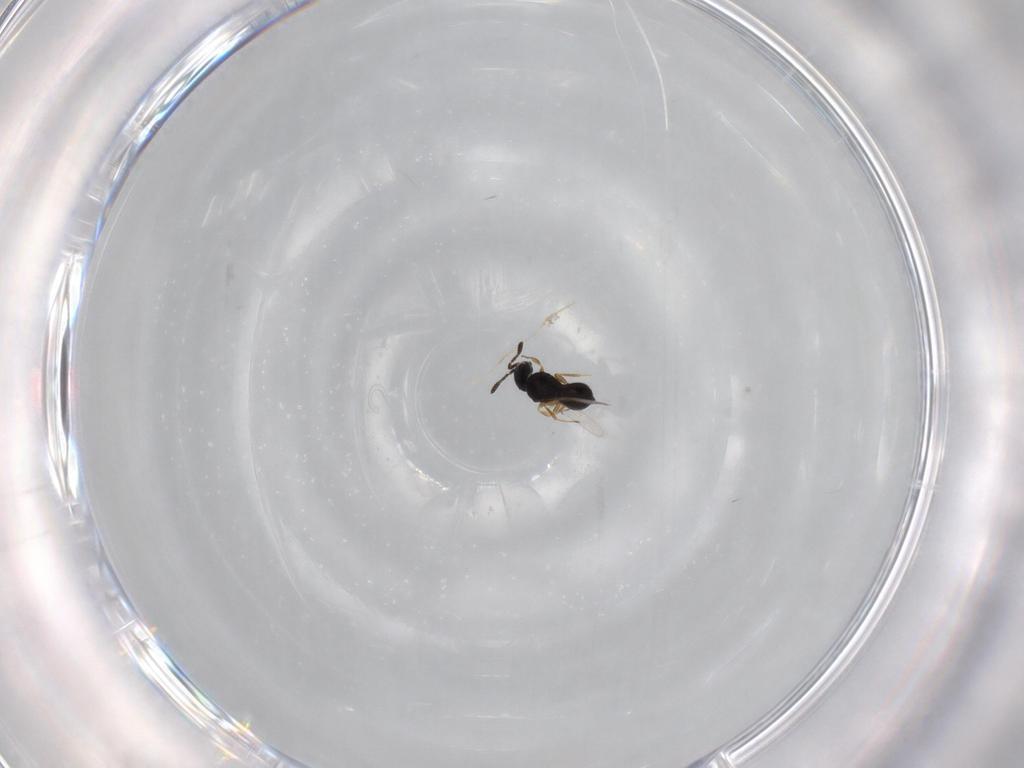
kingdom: Animalia
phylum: Arthropoda
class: Insecta
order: Hymenoptera
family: Scelionidae
